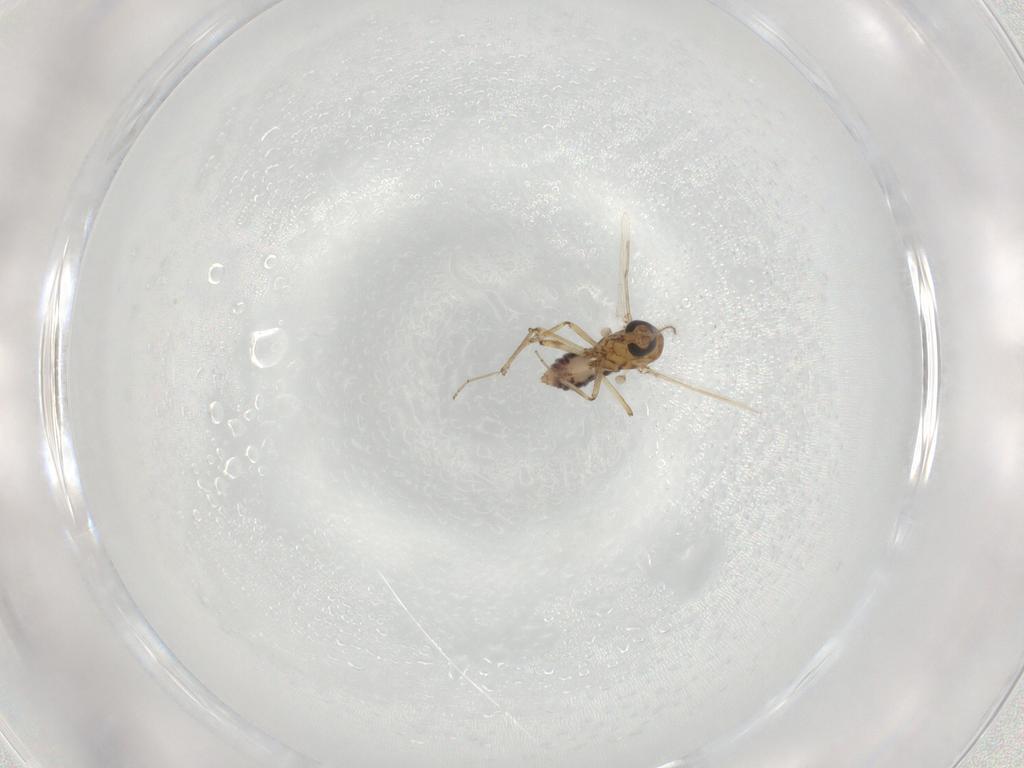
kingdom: Animalia
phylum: Arthropoda
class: Insecta
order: Diptera
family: Ceratopogonidae
